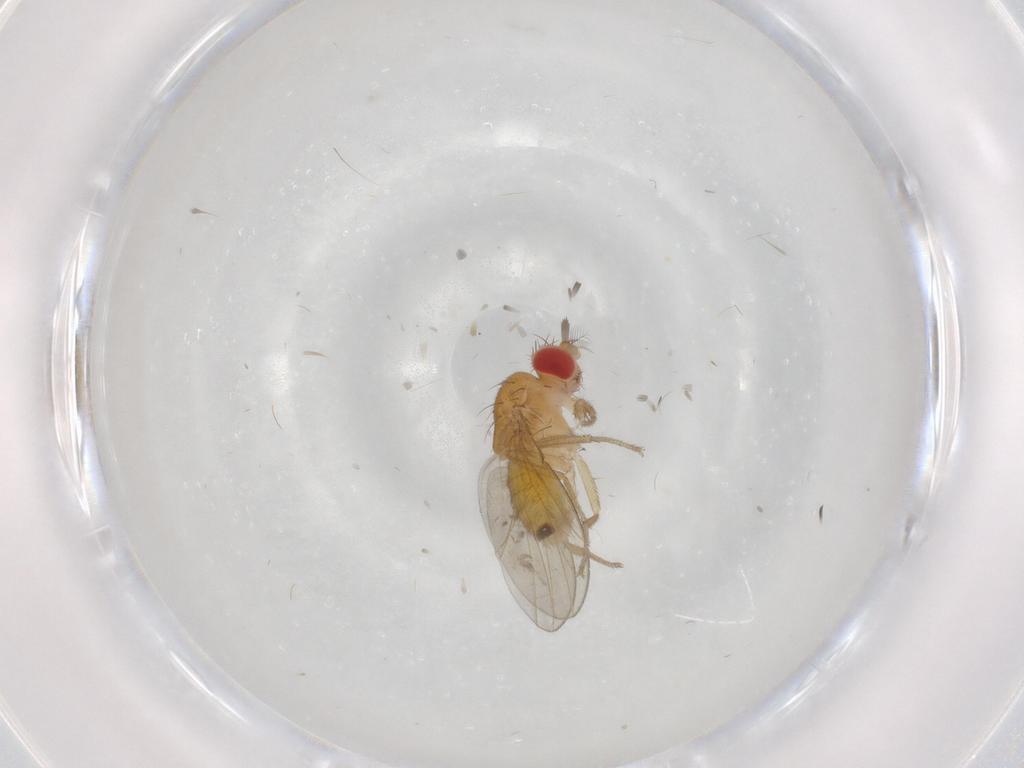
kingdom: Animalia
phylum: Arthropoda
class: Insecta
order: Diptera
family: Drosophilidae
